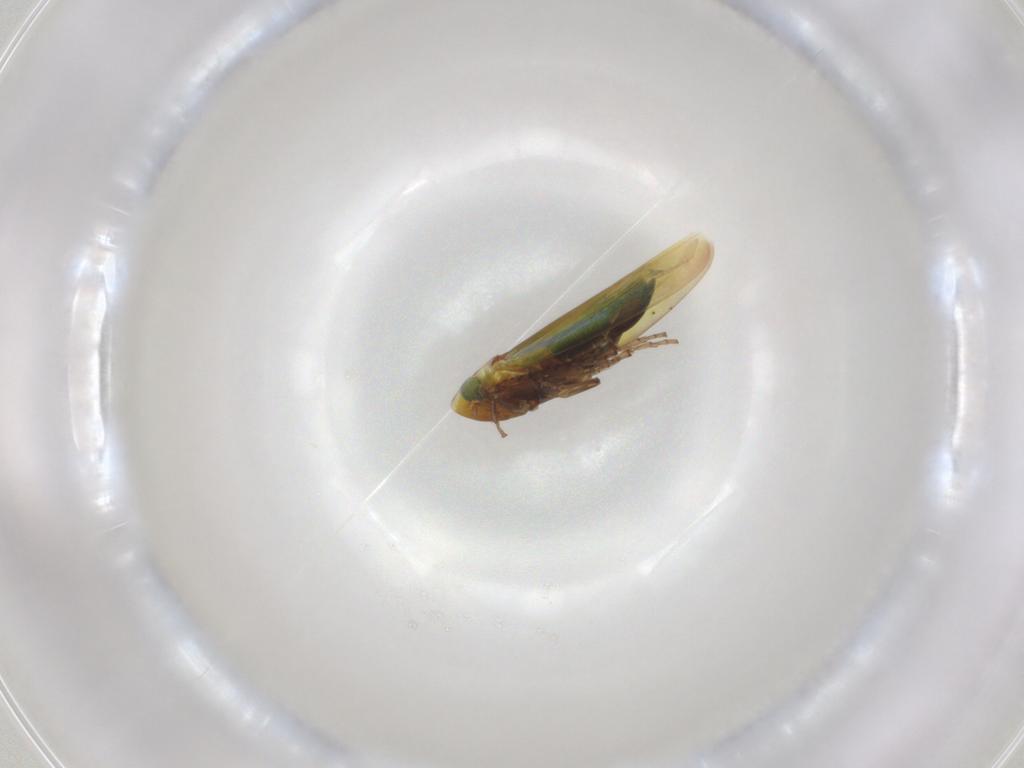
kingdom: Animalia
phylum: Arthropoda
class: Insecta
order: Hemiptera
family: Cicadellidae
